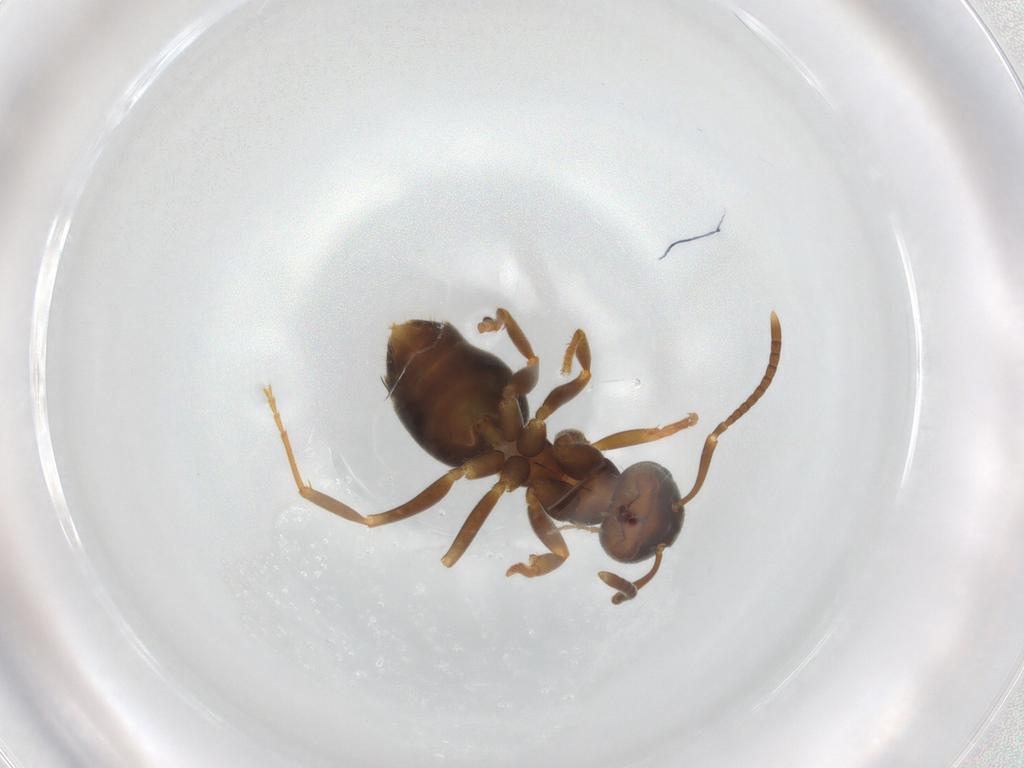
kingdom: Animalia
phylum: Arthropoda
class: Insecta
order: Hymenoptera
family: Formicidae
